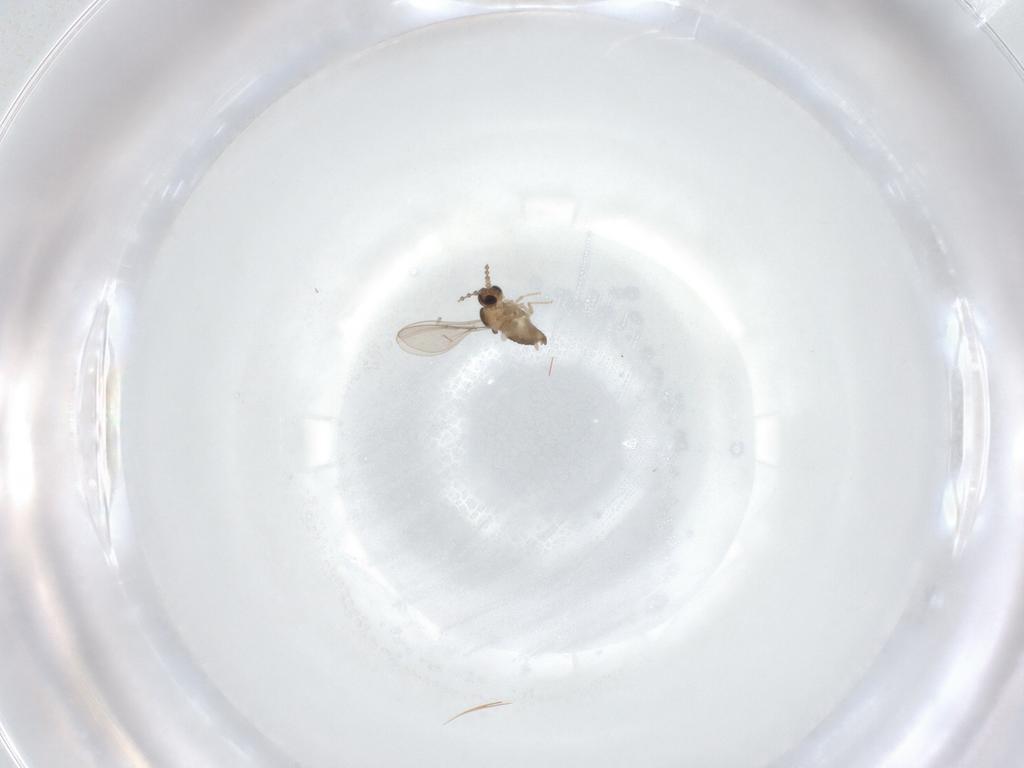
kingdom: Animalia
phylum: Arthropoda
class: Insecta
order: Diptera
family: Cecidomyiidae
